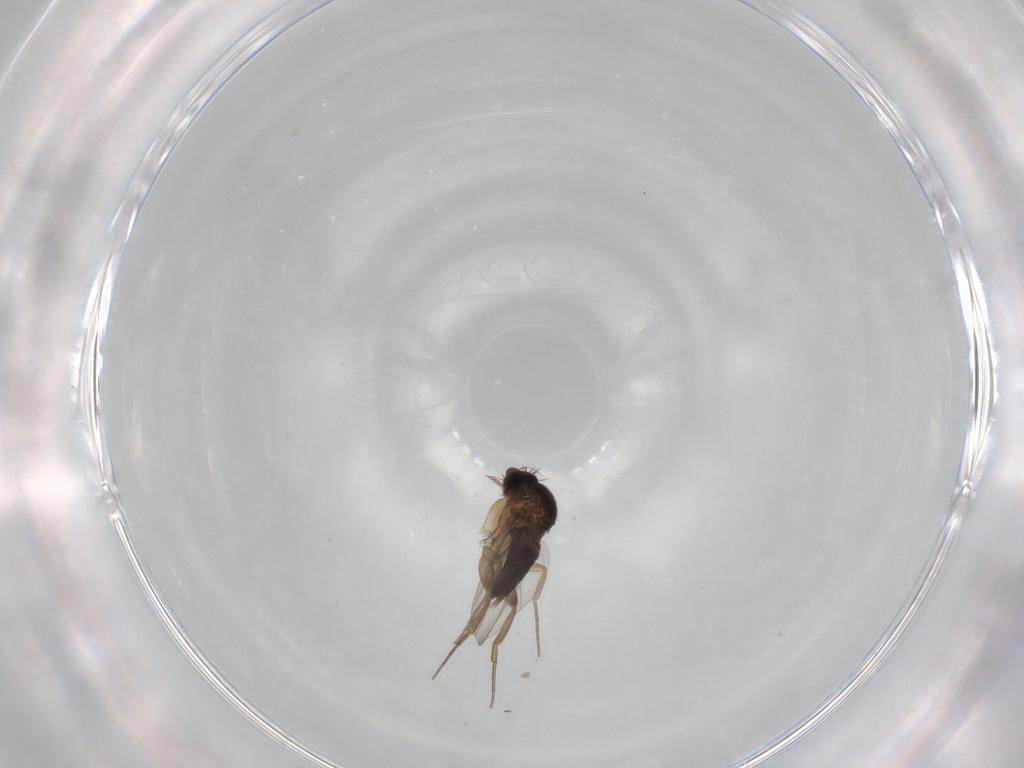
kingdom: Animalia
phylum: Arthropoda
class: Insecta
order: Diptera
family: Phoridae
